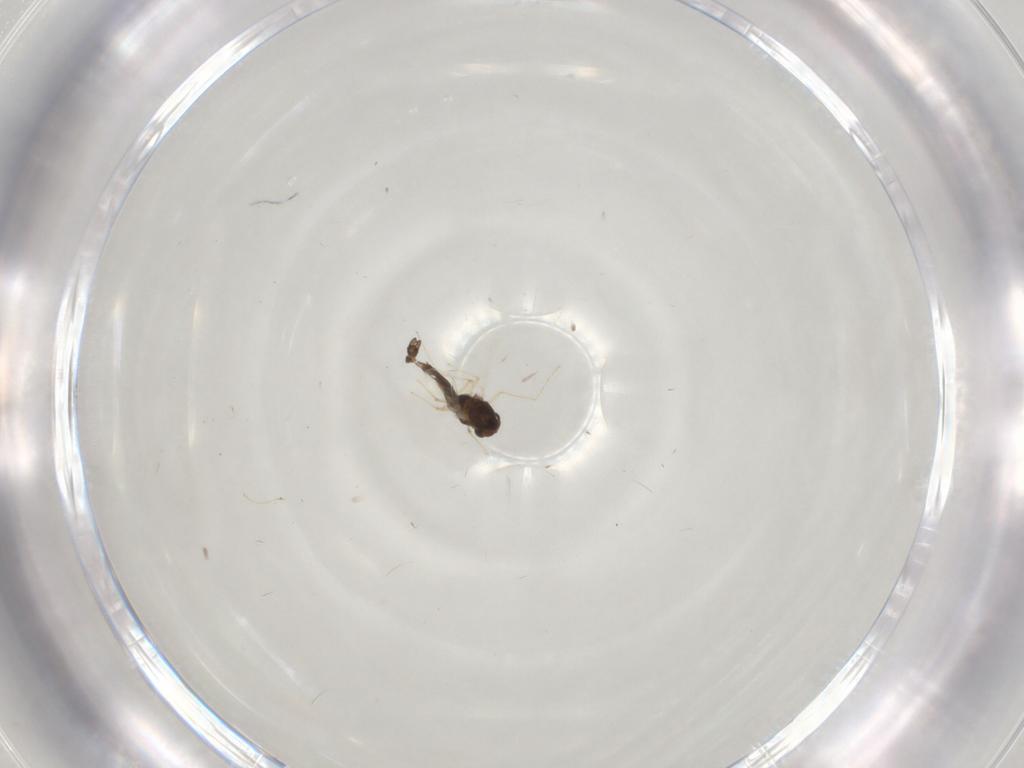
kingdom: Animalia
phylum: Arthropoda
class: Insecta
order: Diptera
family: Chironomidae
